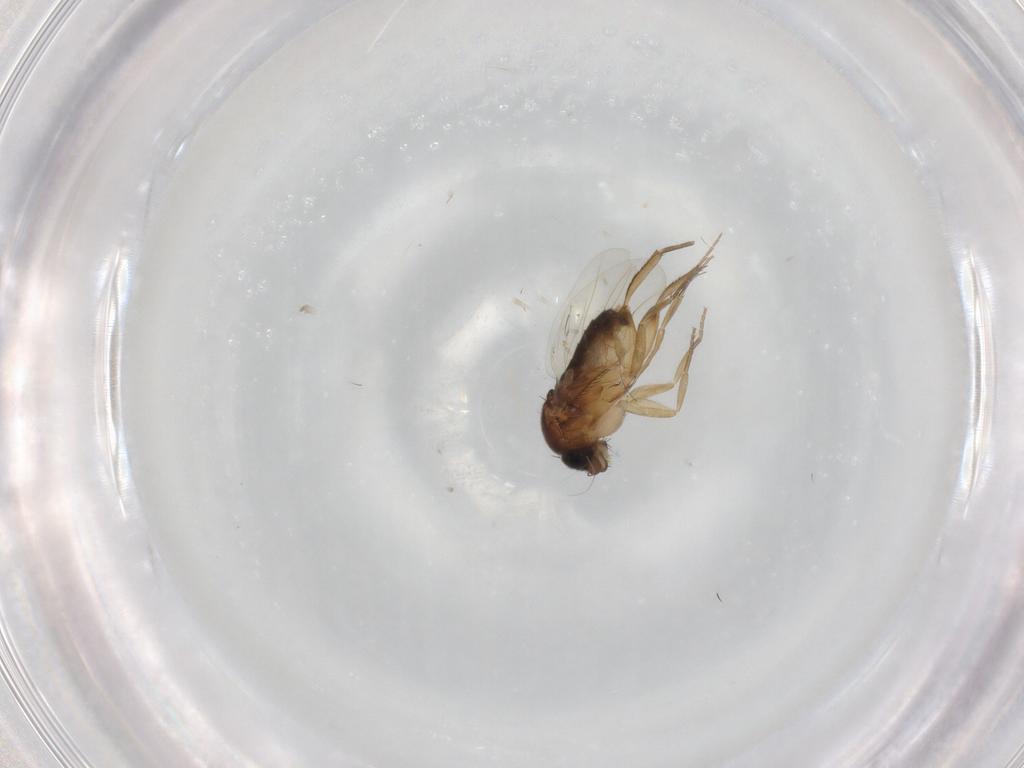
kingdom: Animalia
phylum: Arthropoda
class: Insecta
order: Diptera
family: Phoridae
